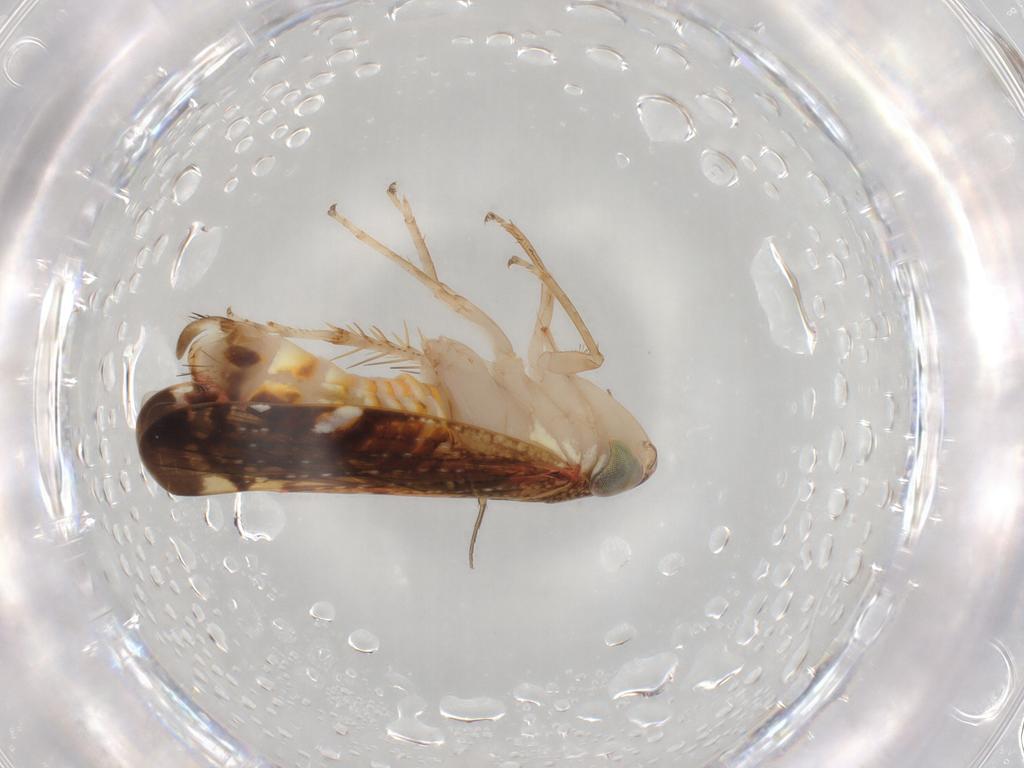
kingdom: Animalia
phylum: Arthropoda
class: Insecta
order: Hemiptera
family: Cicadellidae
